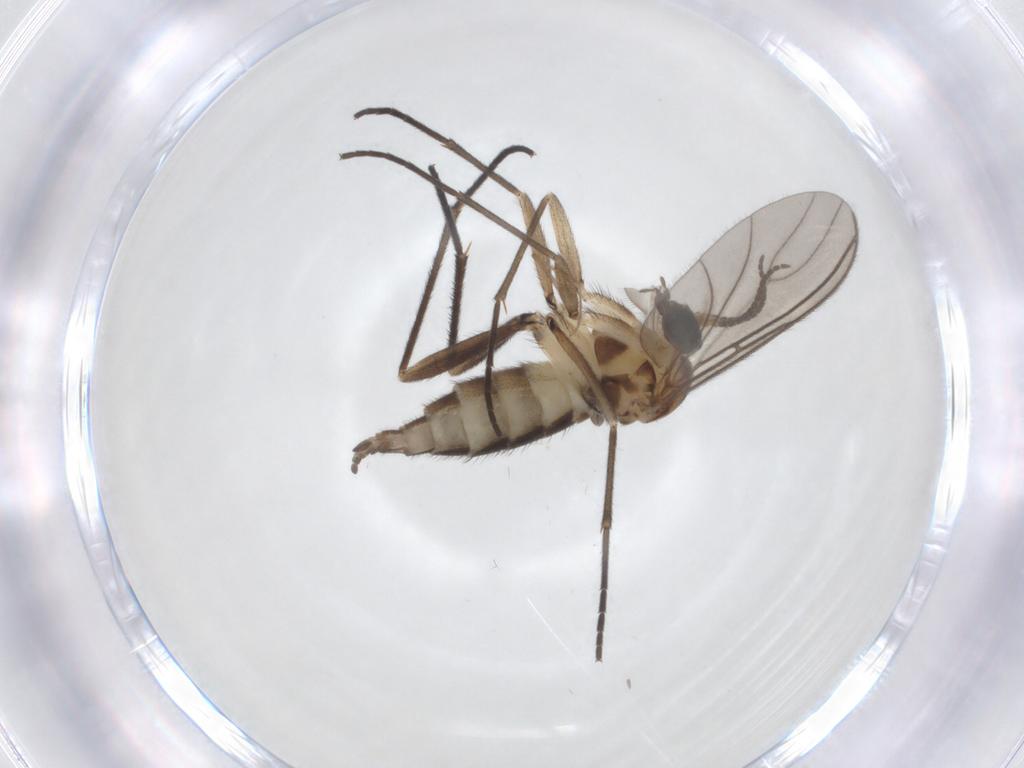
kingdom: Animalia
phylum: Arthropoda
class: Insecta
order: Diptera
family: Sciaridae
